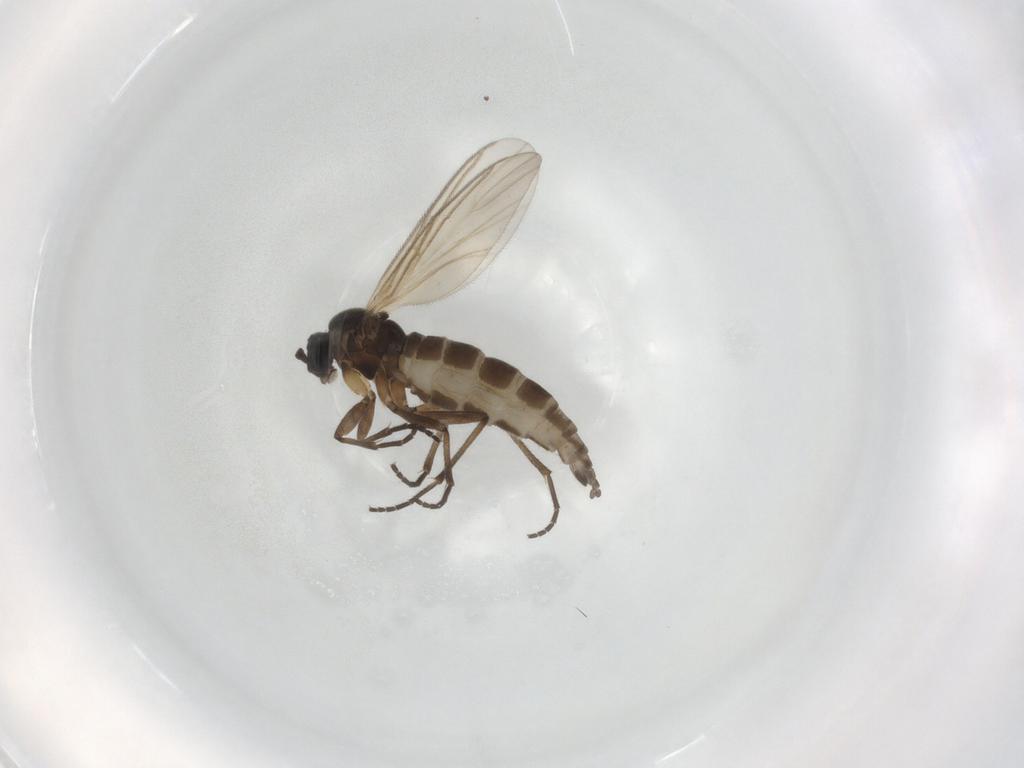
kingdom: Animalia
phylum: Arthropoda
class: Insecta
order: Diptera
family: Sciaridae
